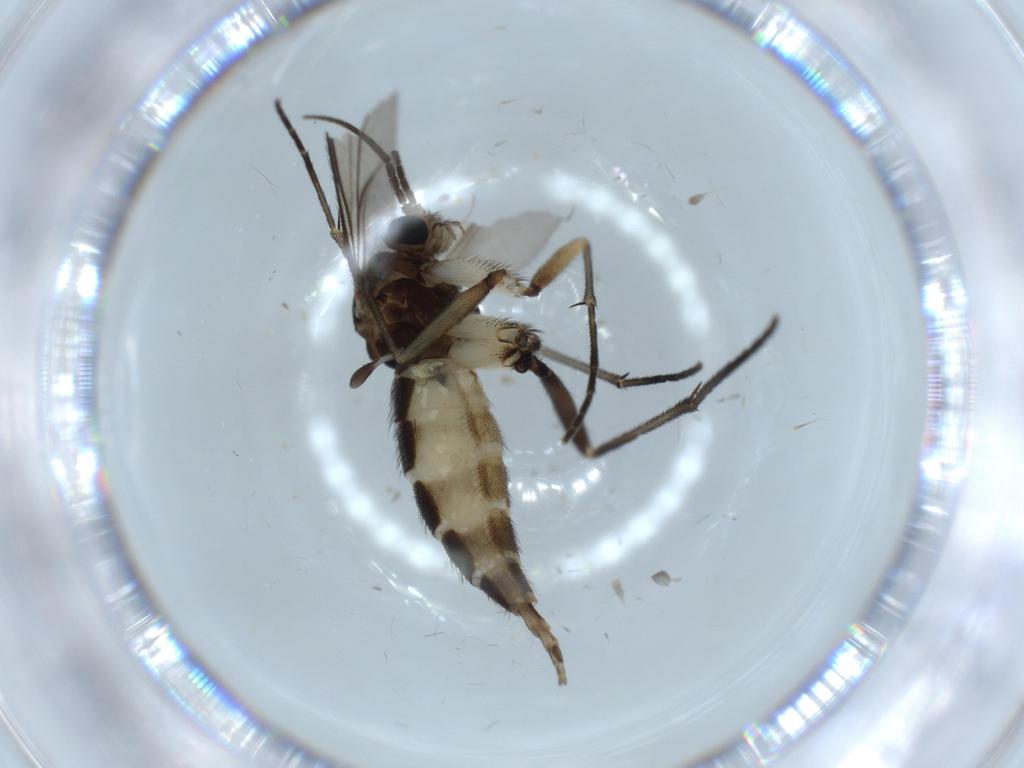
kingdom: Animalia
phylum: Arthropoda
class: Insecta
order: Diptera
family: Sciaridae
